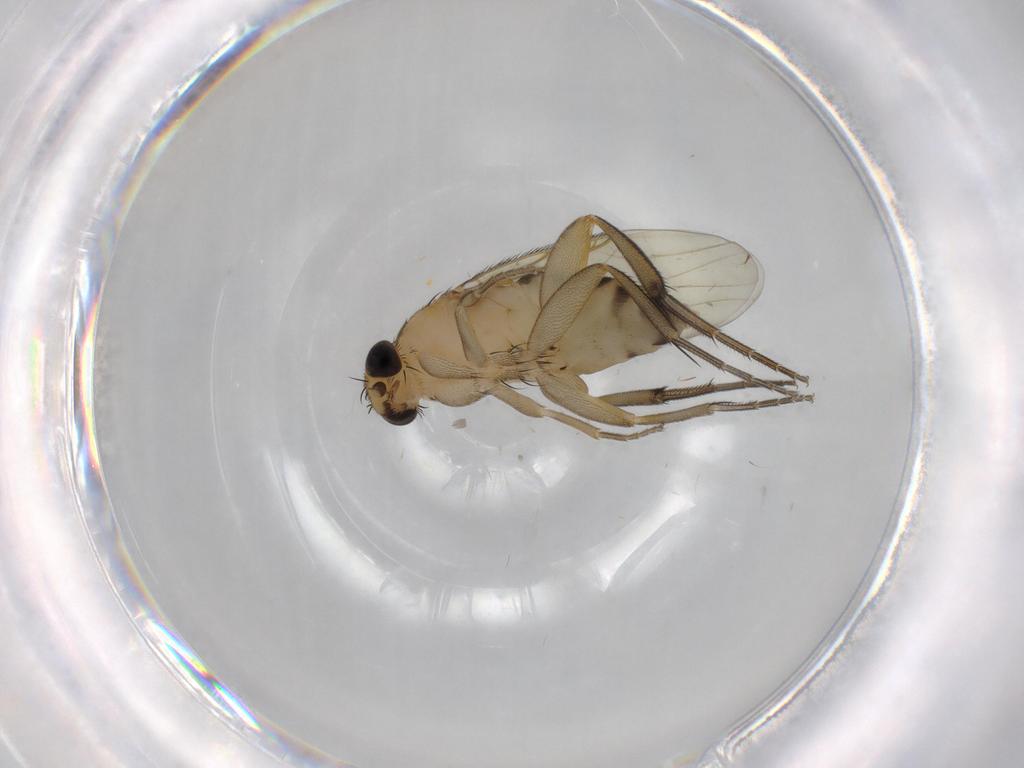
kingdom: Animalia
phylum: Arthropoda
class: Insecta
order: Diptera
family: Phoridae
